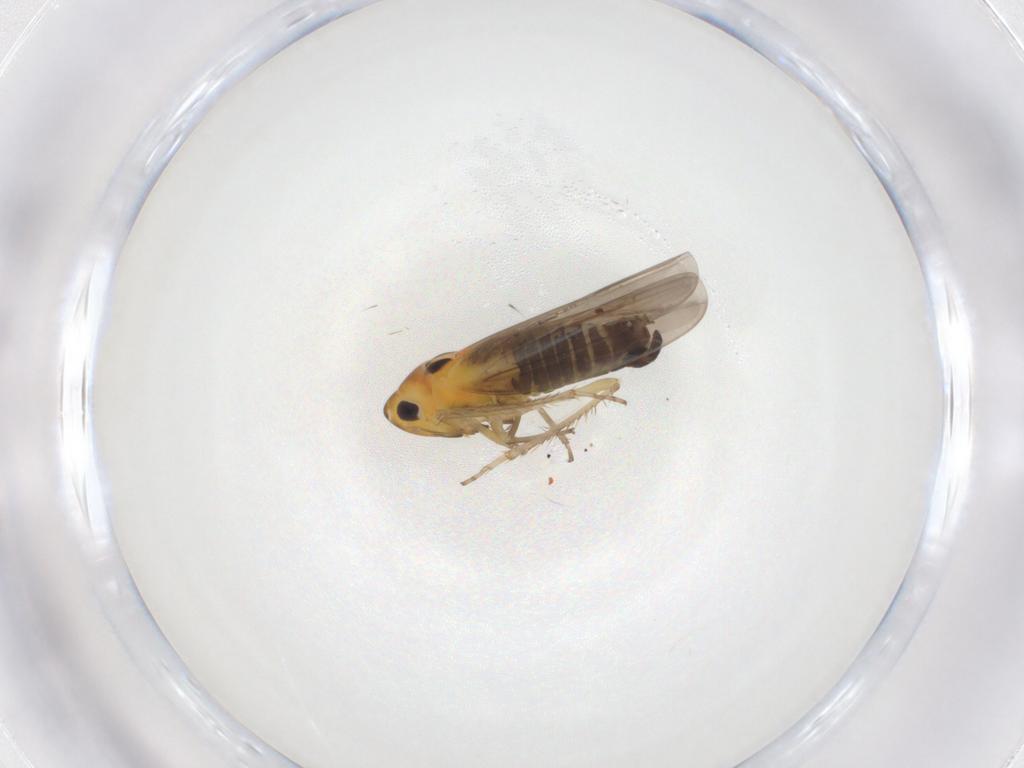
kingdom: Animalia
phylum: Arthropoda
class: Insecta
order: Hemiptera
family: Cicadellidae
